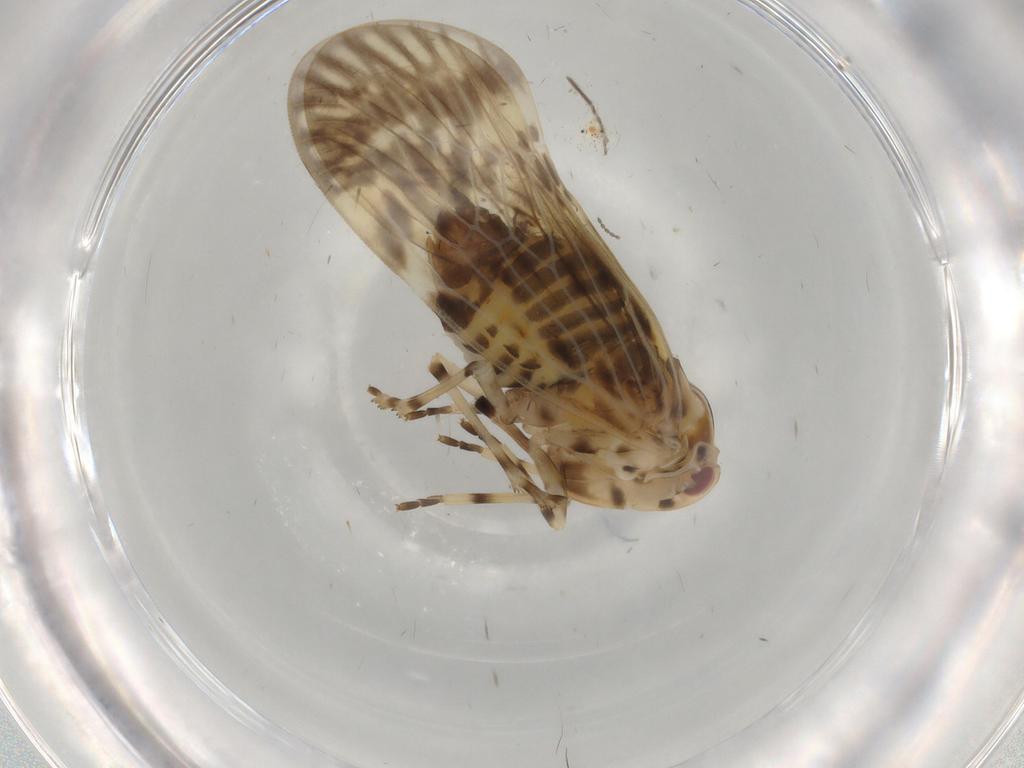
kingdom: Animalia
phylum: Arthropoda
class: Insecta
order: Hemiptera
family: Derbidae
